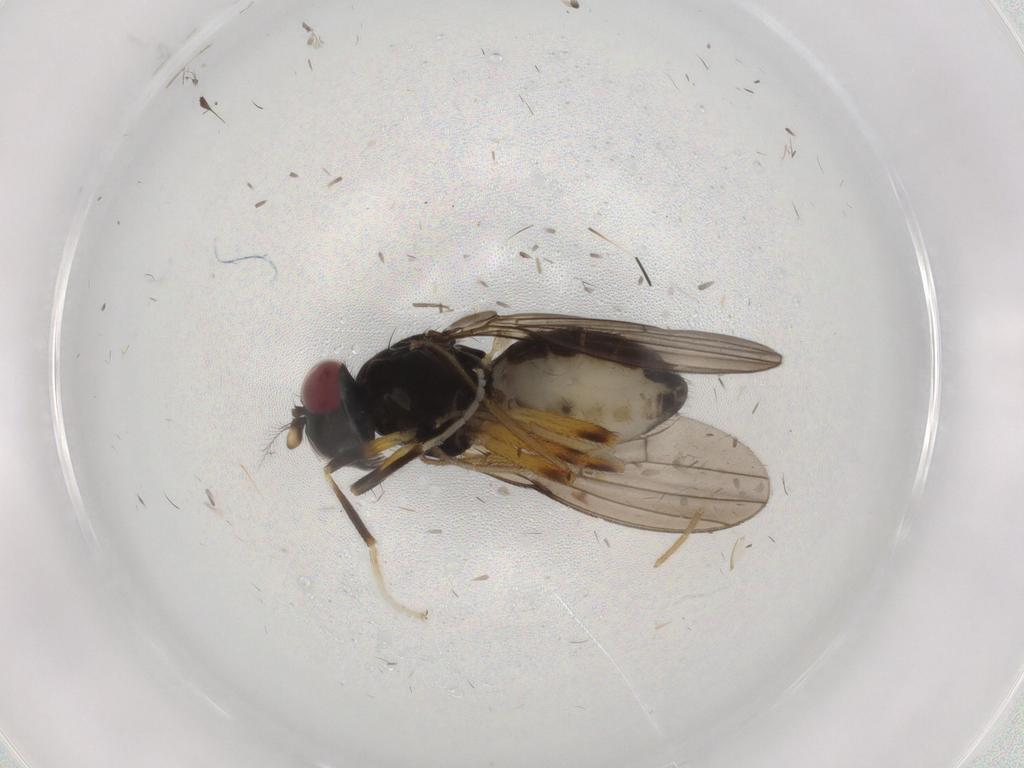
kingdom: Animalia
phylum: Arthropoda
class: Insecta
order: Diptera
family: Lauxaniidae
